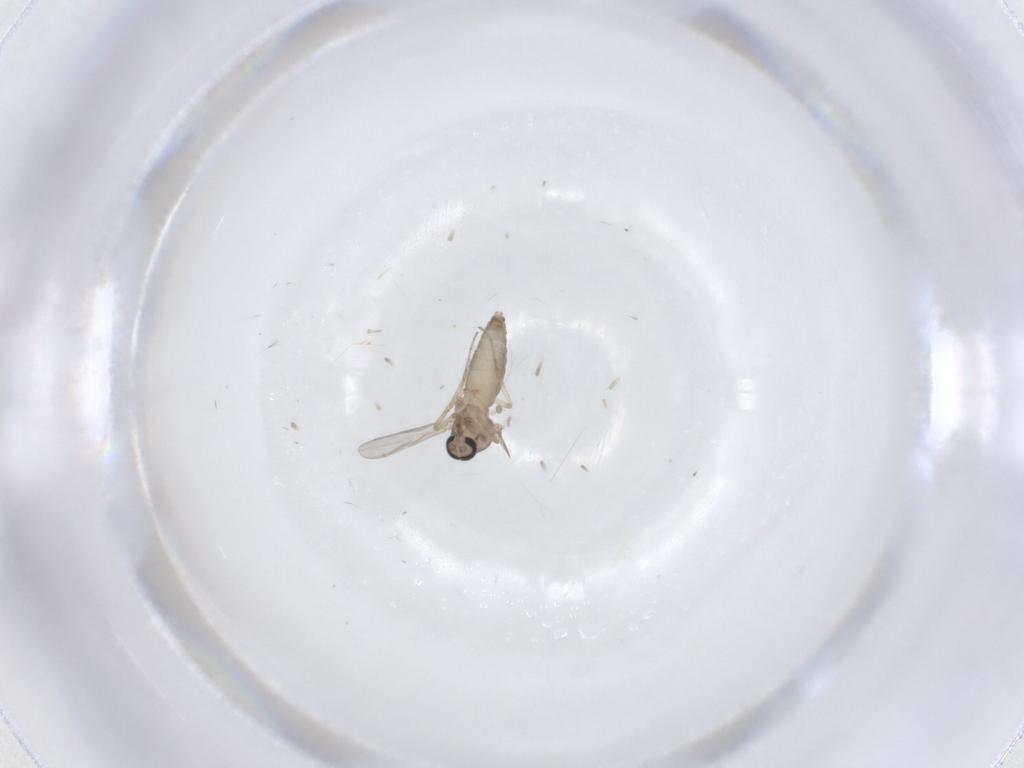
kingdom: Animalia
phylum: Arthropoda
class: Insecta
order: Diptera
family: Ceratopogonidae
